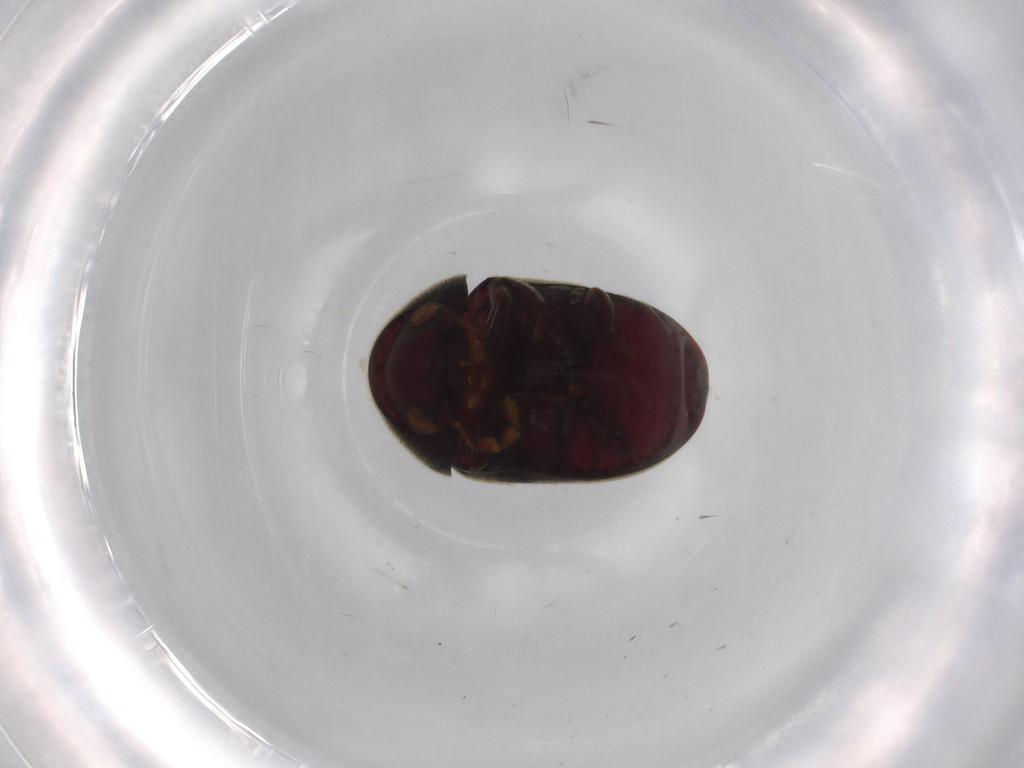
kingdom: Animalia
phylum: Arthropoda
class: Insecta
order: Coleoptera
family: Ptinidae
